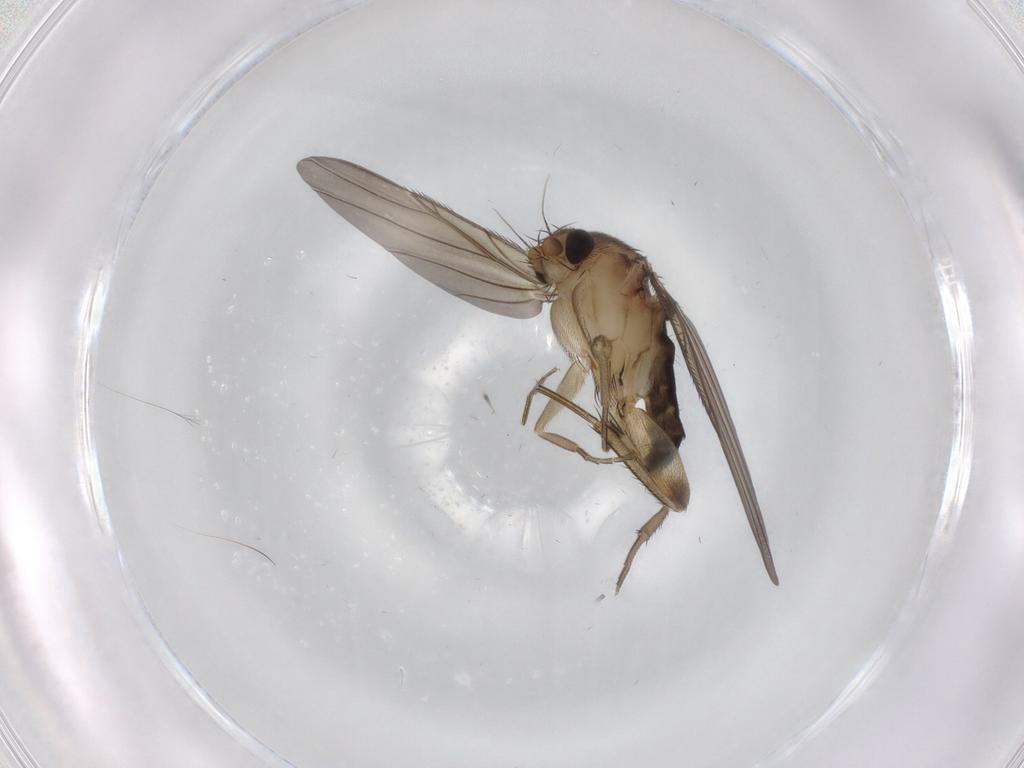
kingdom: Animalia
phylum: Arthropoda
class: Insecta
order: Diptera
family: Phoridae
